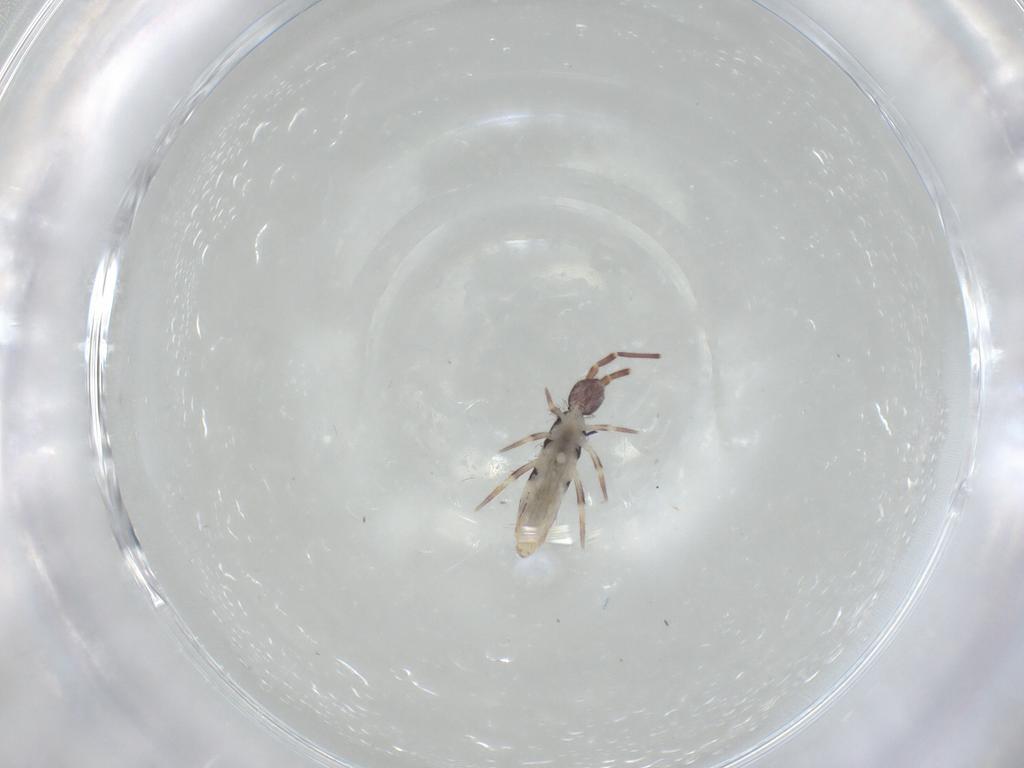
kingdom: Animalia
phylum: Arthropoda
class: Collembola
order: Entomobryomorpha
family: Entomobryidae
